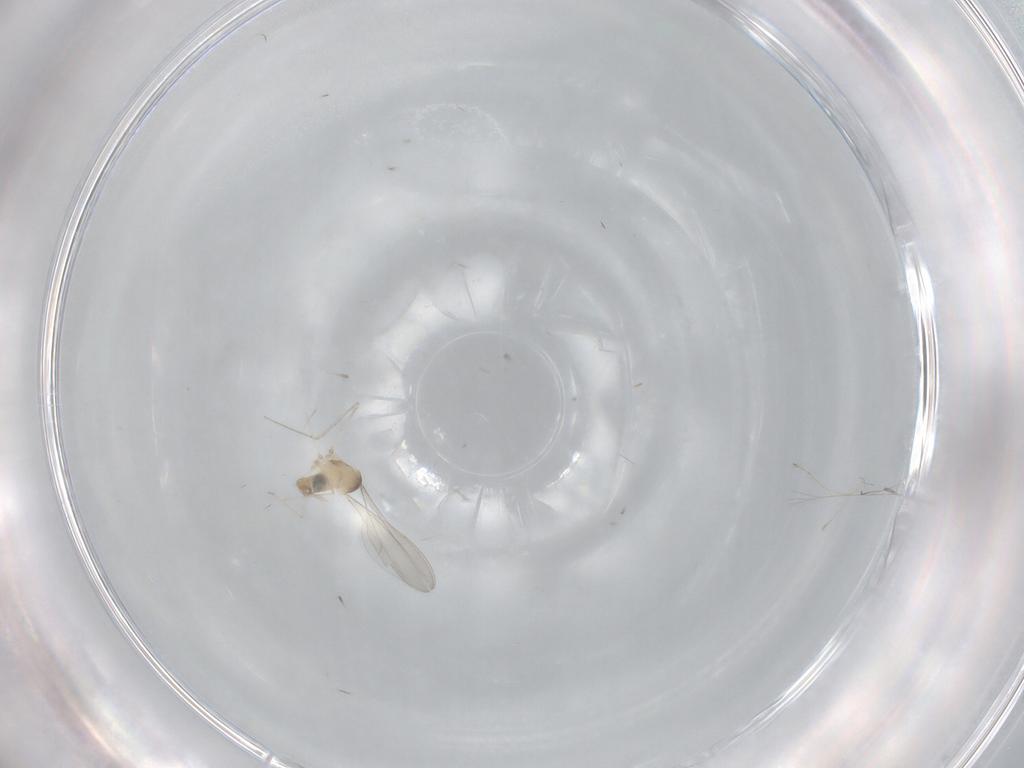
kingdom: Animalia
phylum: Arthropoda
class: Insecta
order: Diptera
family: Cecidomyiidae
